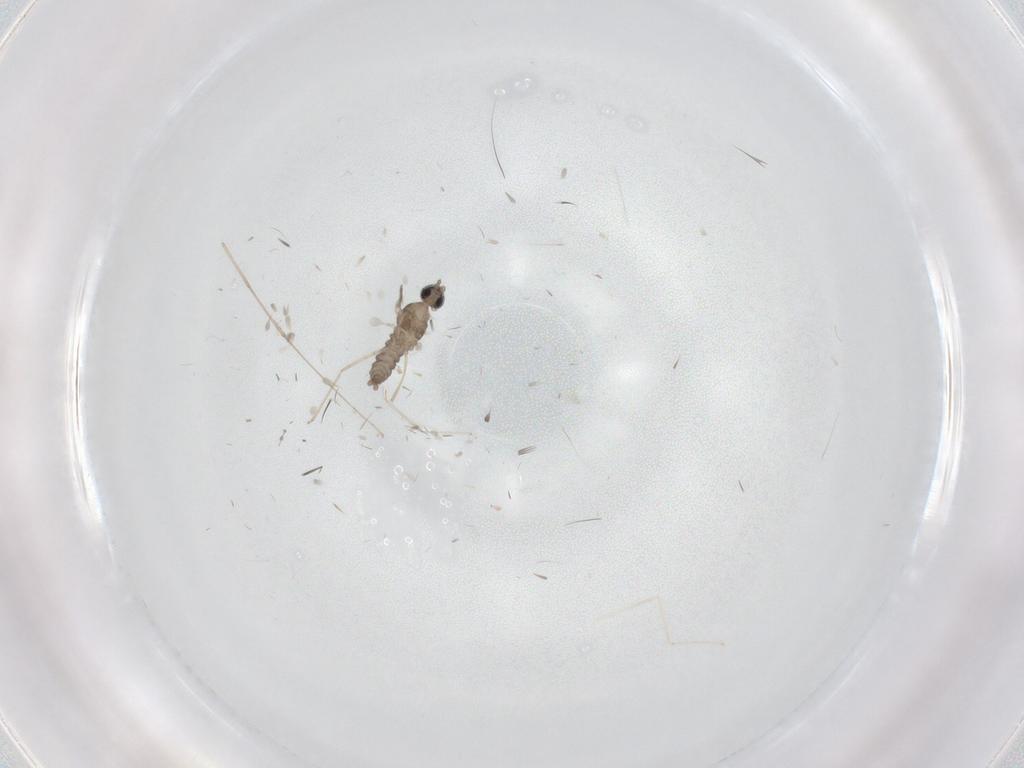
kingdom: Animalia
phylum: Arthropoda
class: Insecta
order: Diptera
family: Cecidomyiidae
